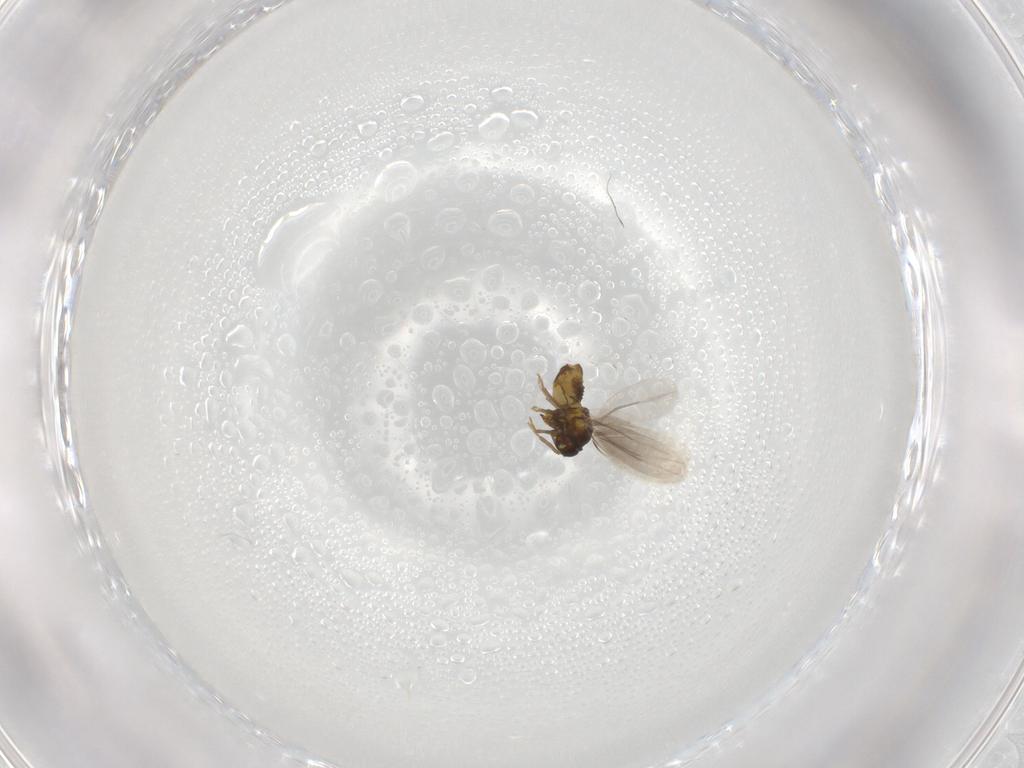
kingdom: Animalia
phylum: Arthropoda
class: Insecta
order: Hemiptera
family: Aleyrodidae
